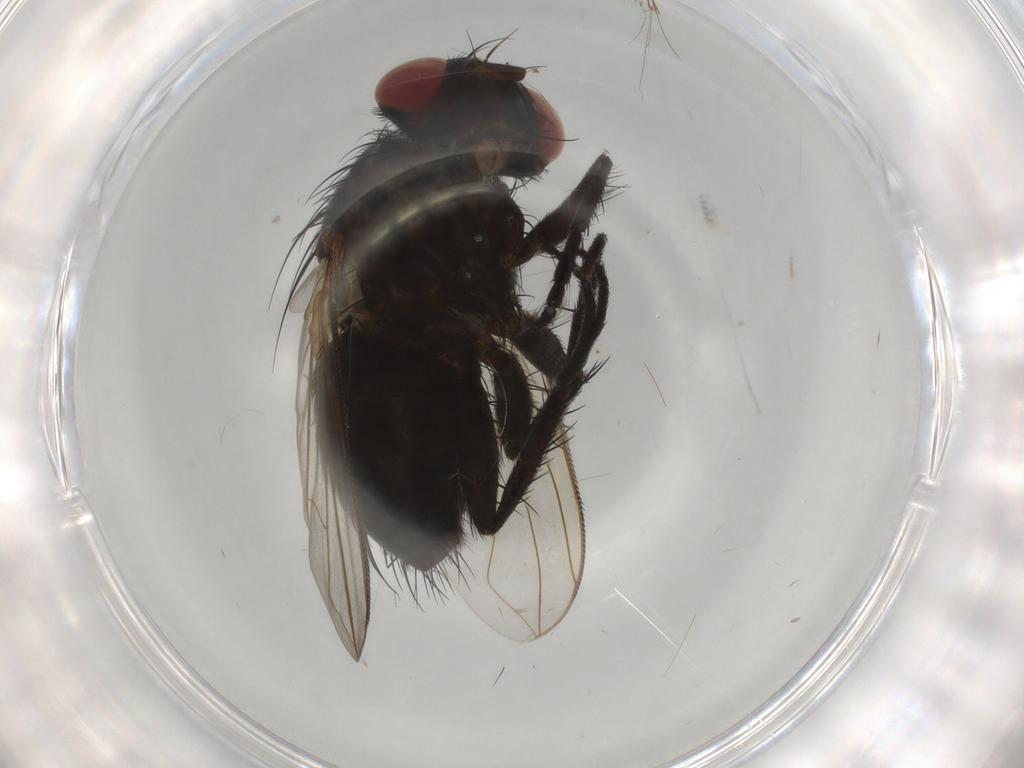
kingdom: Animalia
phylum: Arthropoda
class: Insecta
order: Diptera
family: Tachinidae
